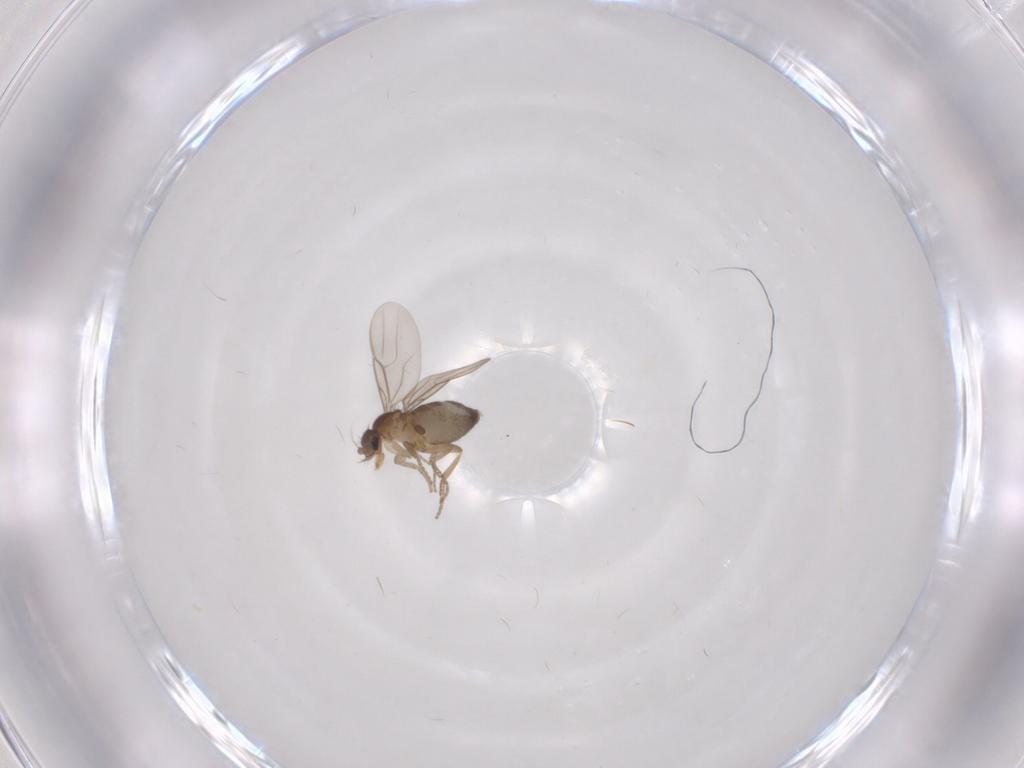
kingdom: Animalia
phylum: Arthropoda
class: Insecta
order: Diptera
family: Phoridae
